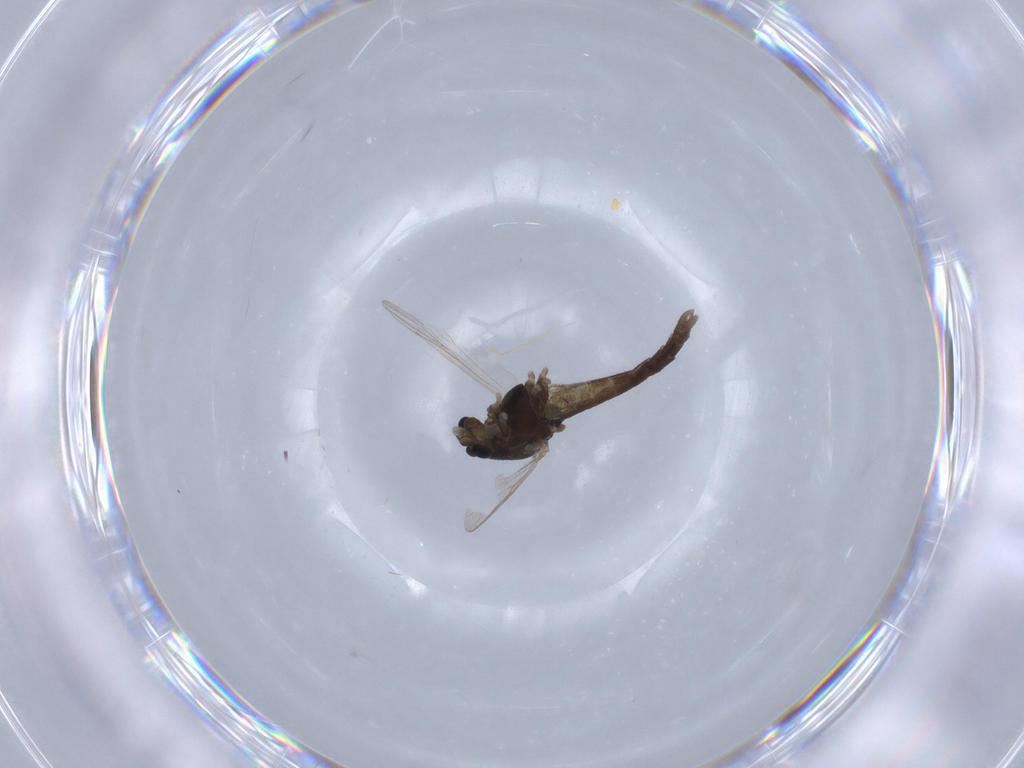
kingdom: Animalia
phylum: Arthropoda
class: Insecta
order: Diptera
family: Chironomidae
